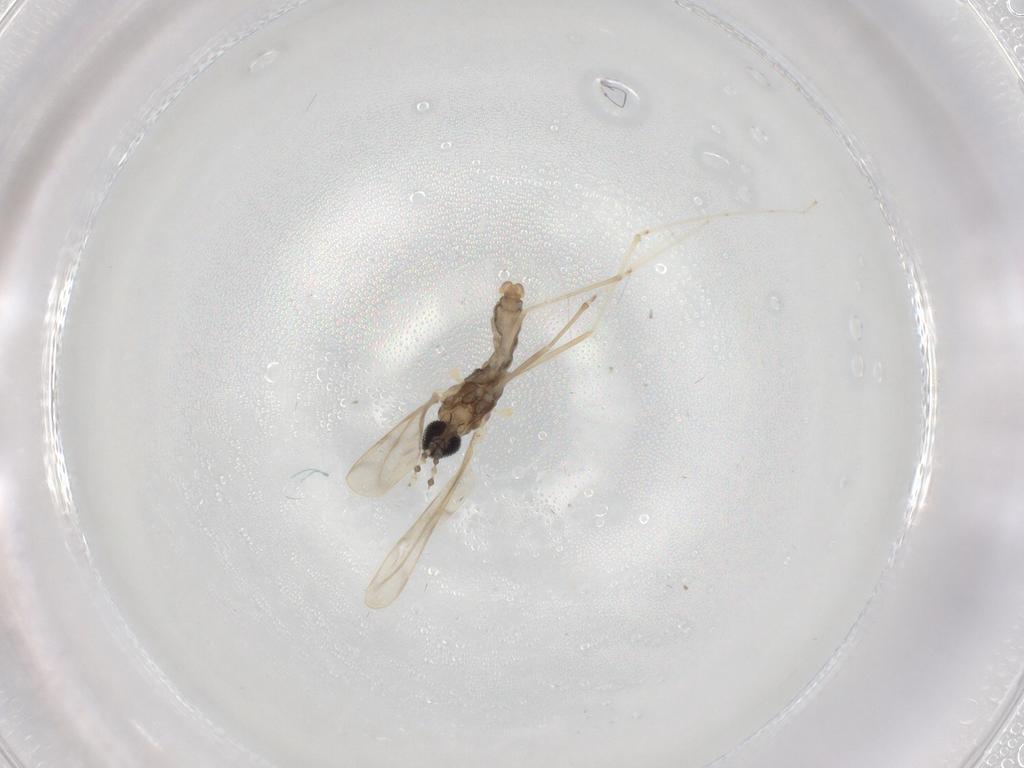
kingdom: Animalia
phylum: Arthropoda
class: Insecta
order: Diptera
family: Cecidomyiidae
